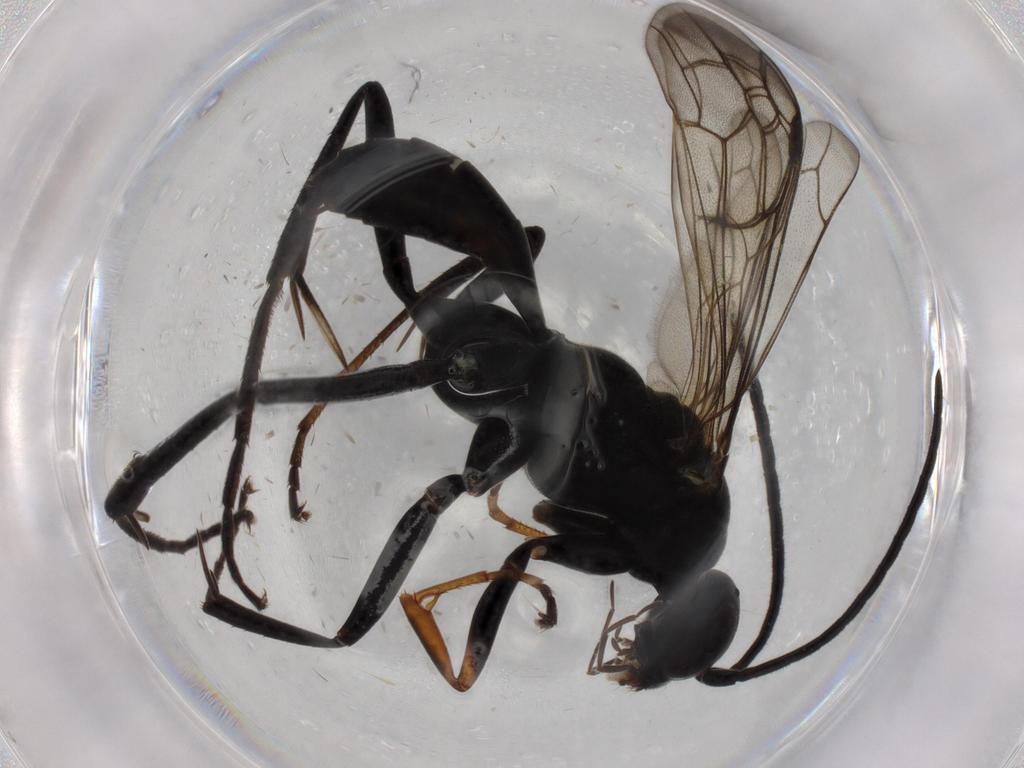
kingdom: Animalia
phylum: Arthropoda
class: Insecta
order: Hymenoptera
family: Pompilidae
